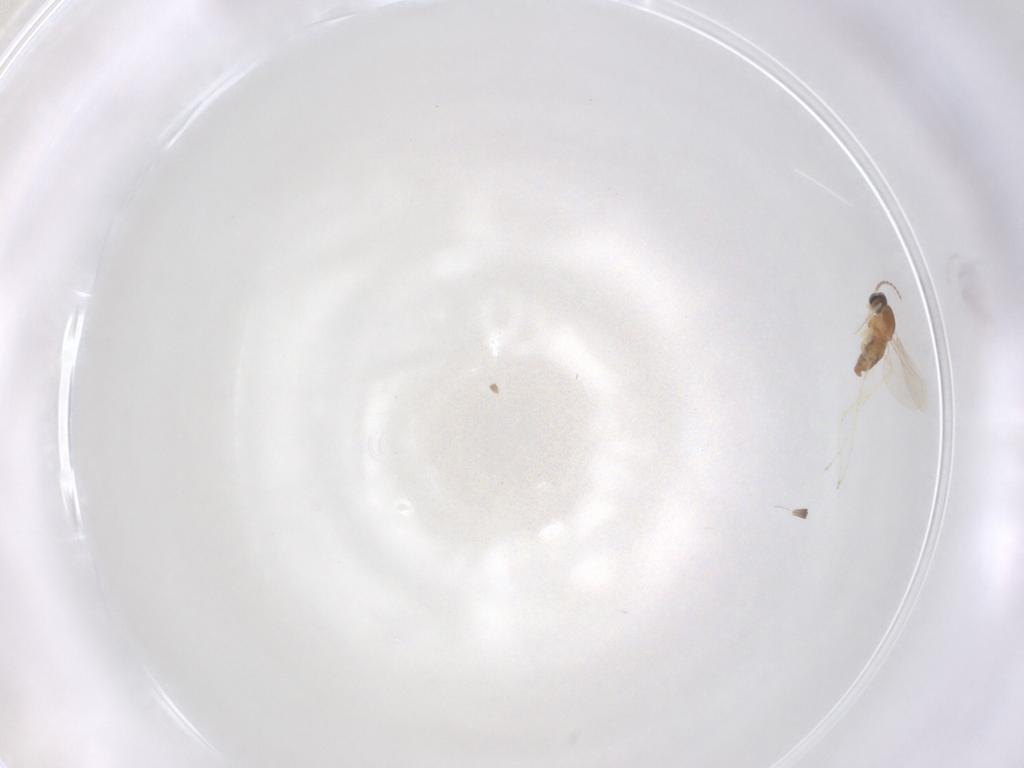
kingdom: Animalia
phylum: Arthropoda
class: Insecta
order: Diptera
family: Cecidomyiidae
